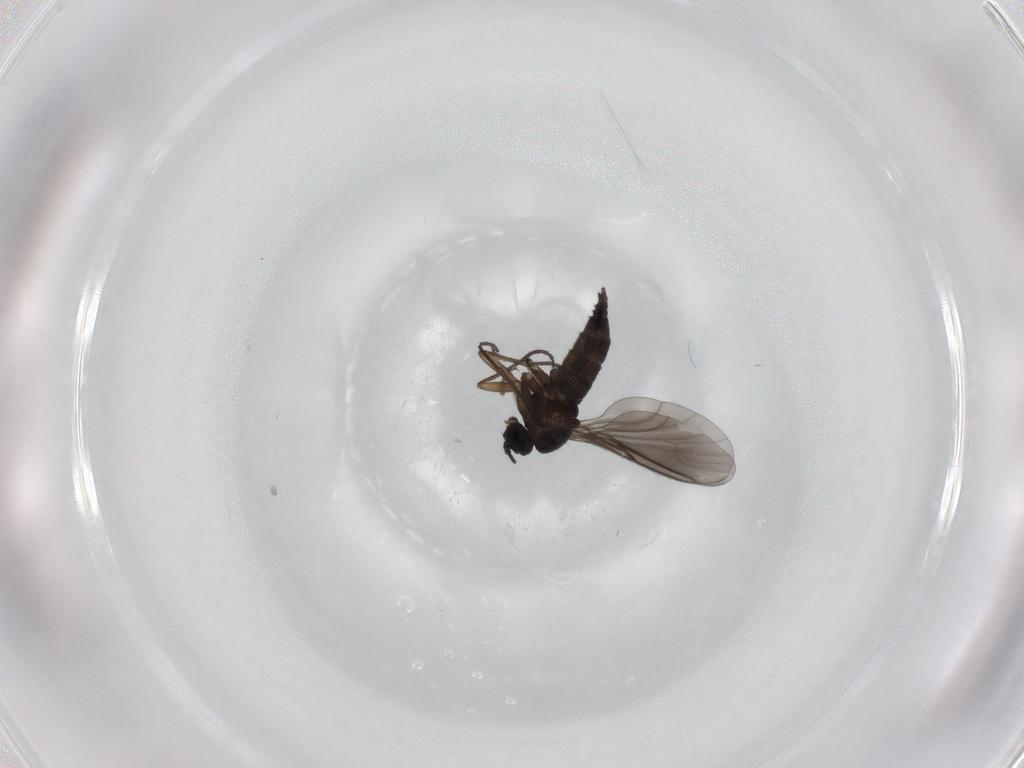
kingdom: Animalia
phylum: Arthropoda
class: Insecta
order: Diptera
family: Sciaridae
